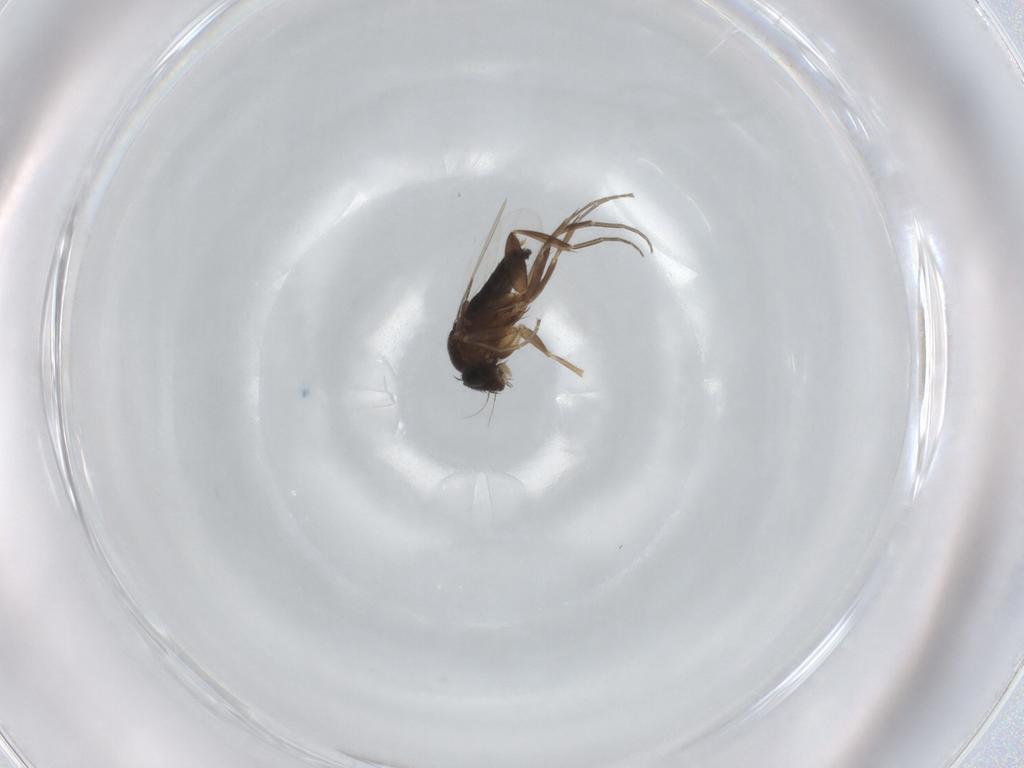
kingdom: Animalia
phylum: Arthropoda
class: Insecta
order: Diptera
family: Phoridae
